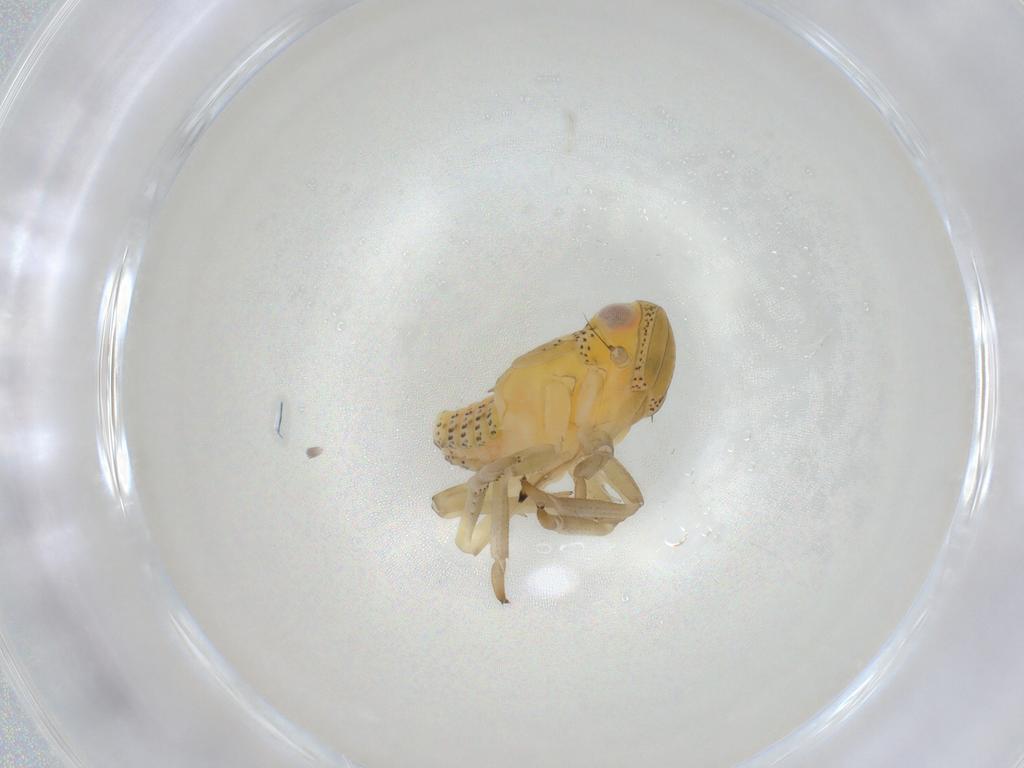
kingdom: Animalia
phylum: Arthropoda
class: Insecta
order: Hemiptera
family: Tropiduchidae
